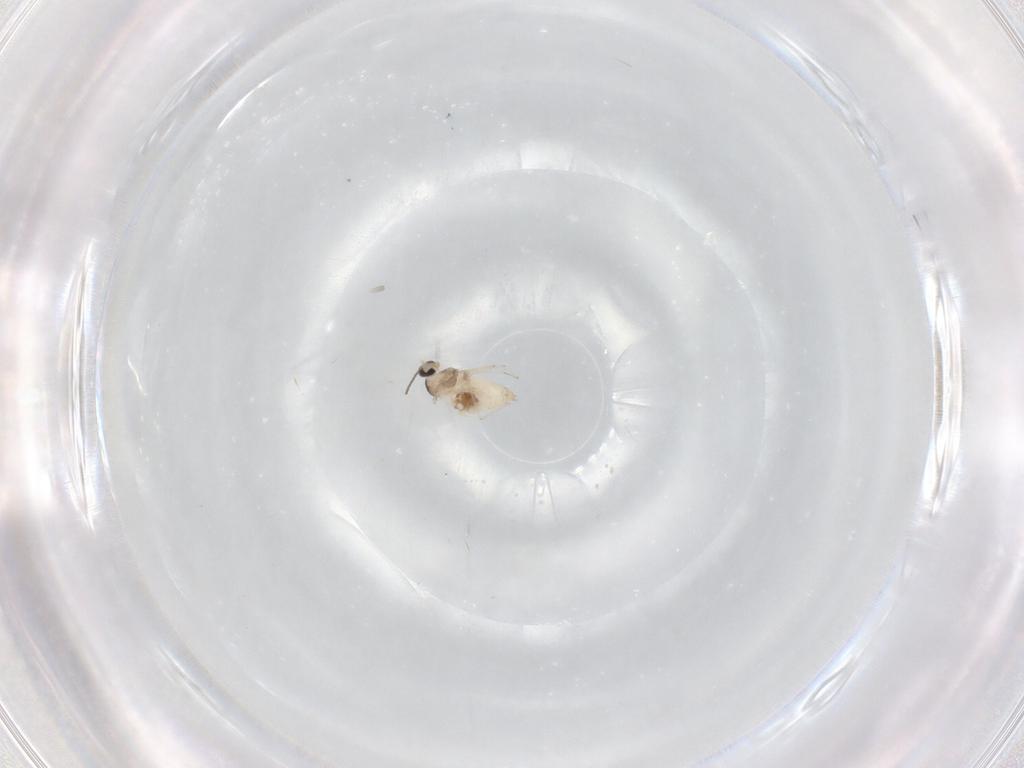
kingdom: Animalia
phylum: Arthropoda
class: Insecta
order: Diptera
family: Cecidomyiidae
